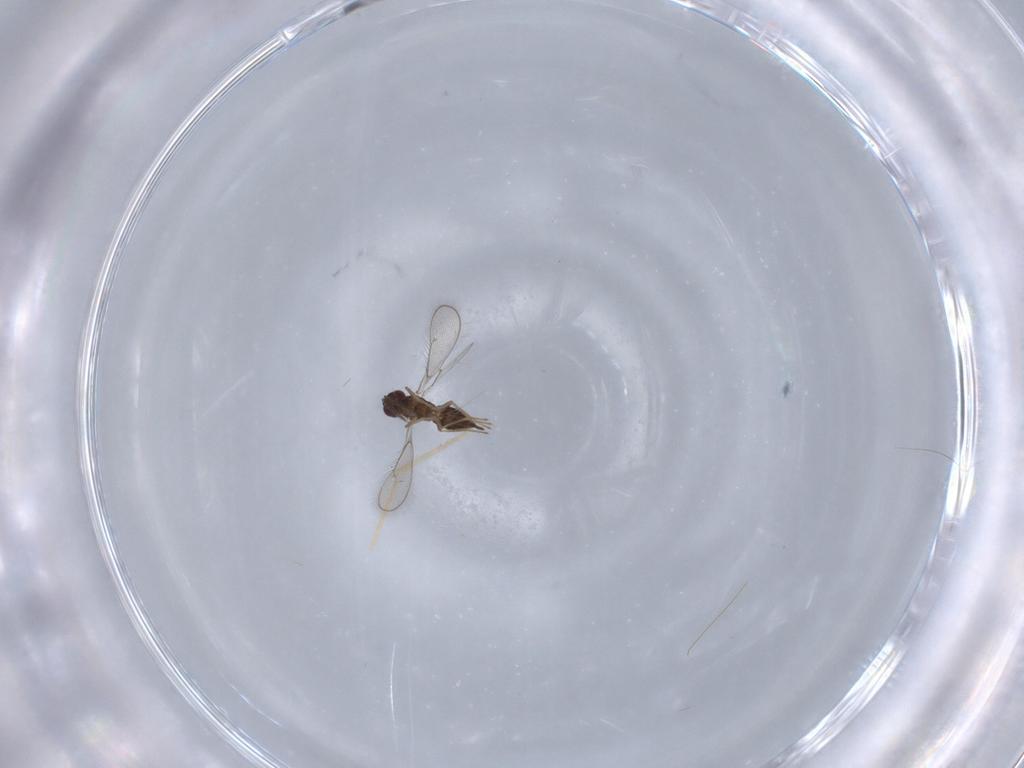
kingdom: Animalia
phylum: Arthropoda
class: Insecta
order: Hymenoptera
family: Eulophidae
